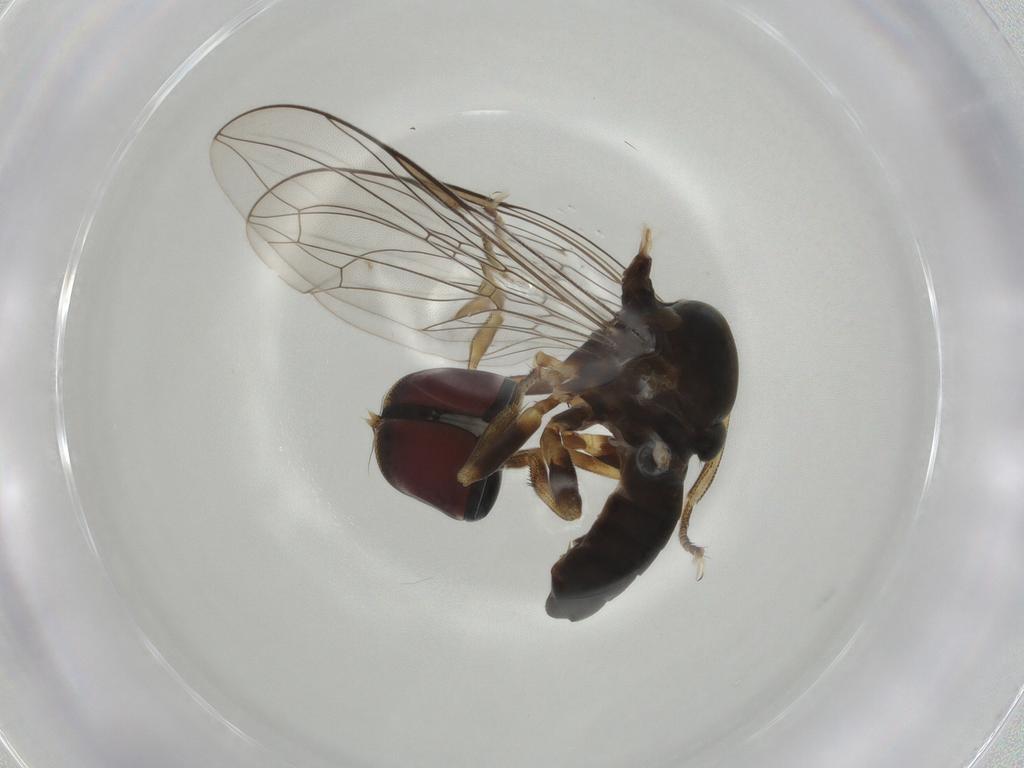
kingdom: Animalia
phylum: Arthropoda
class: Insecta
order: Diptera
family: Pipunculidae
